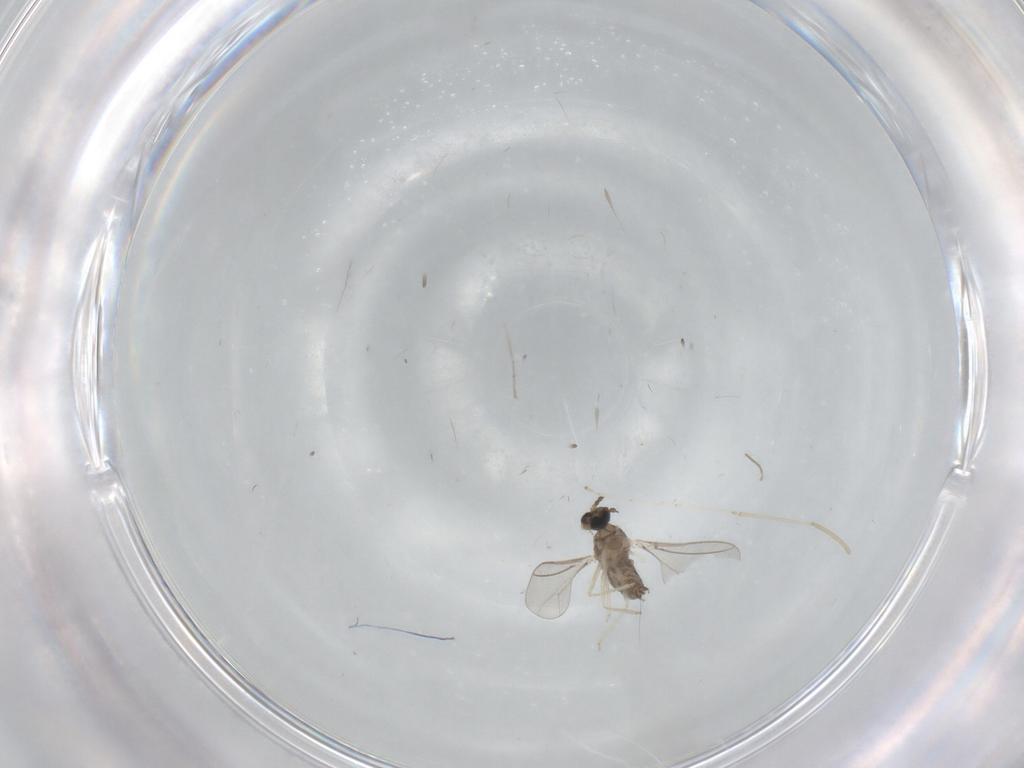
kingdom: Animalia
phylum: Arthropoda
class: Insecta
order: Diptera
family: Cecidomyiidae
